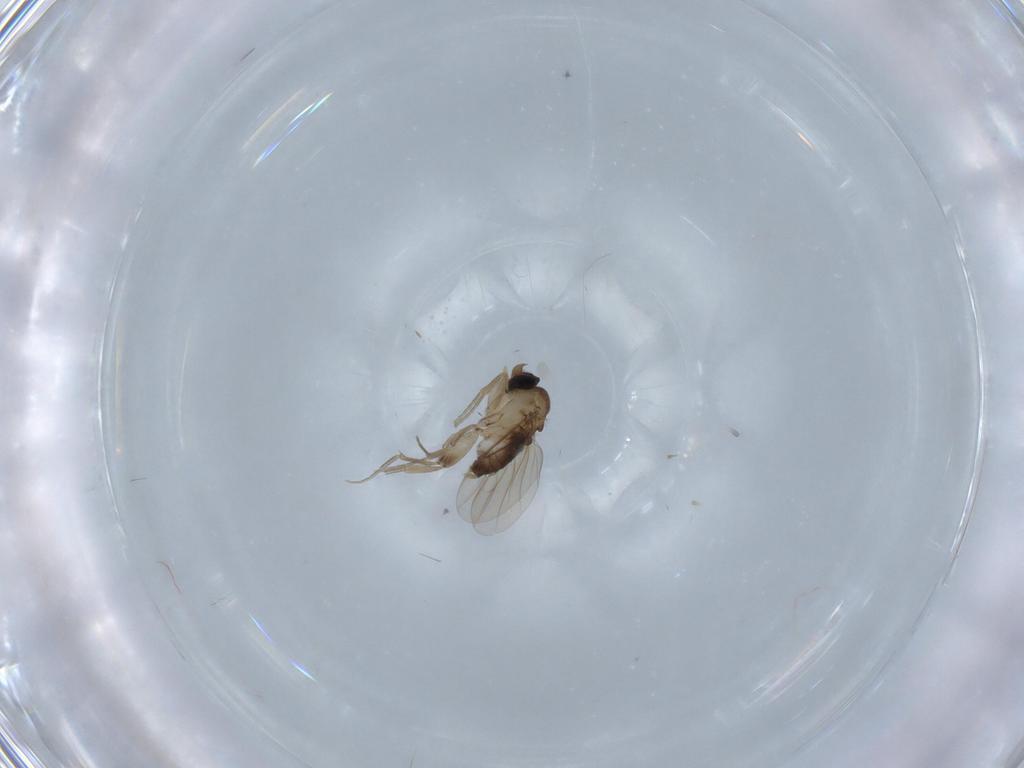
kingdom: Animalia
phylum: Arthropoda
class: Insecta
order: Diptera
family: Phoridae
